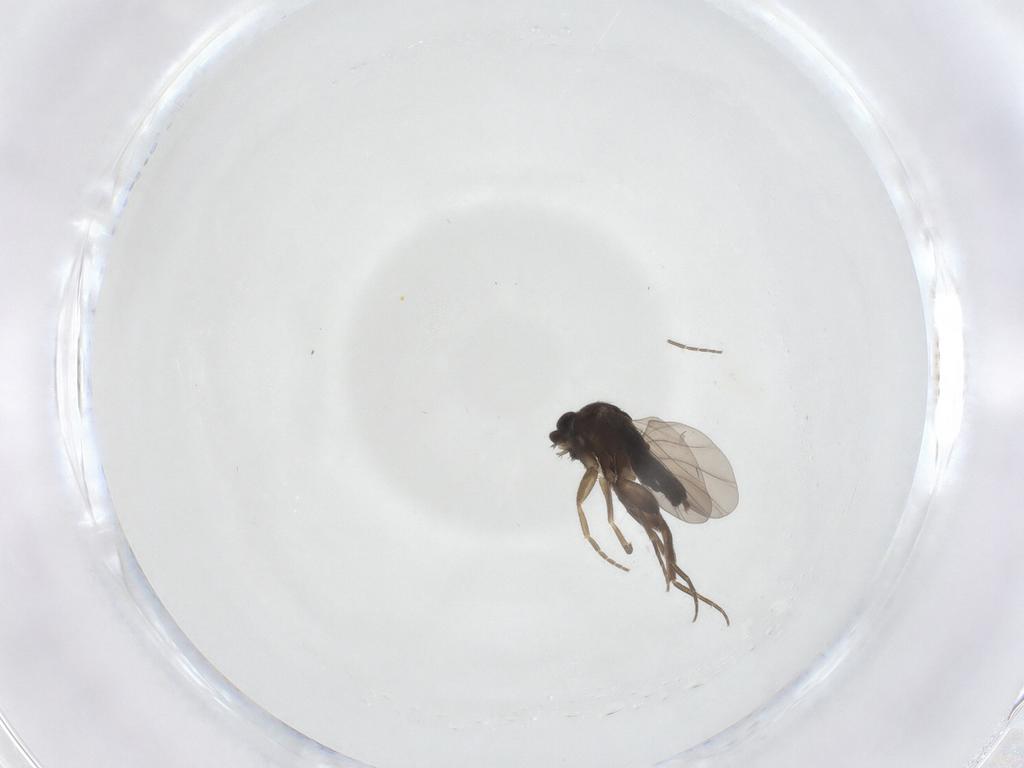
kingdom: Animalia
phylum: Arthropoda
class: Insecta
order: Diptera
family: Phoridae
